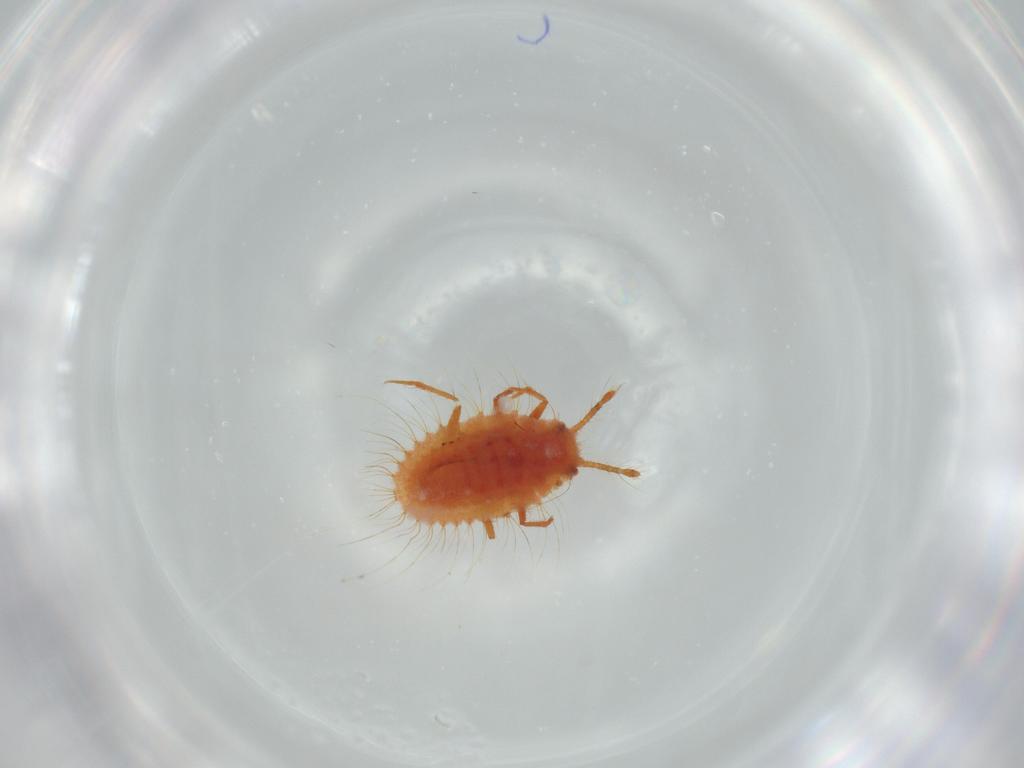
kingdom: Animalia
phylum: Arthropoda
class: Insecta
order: Hemiptera
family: Coccoidea_incertae_sedis
